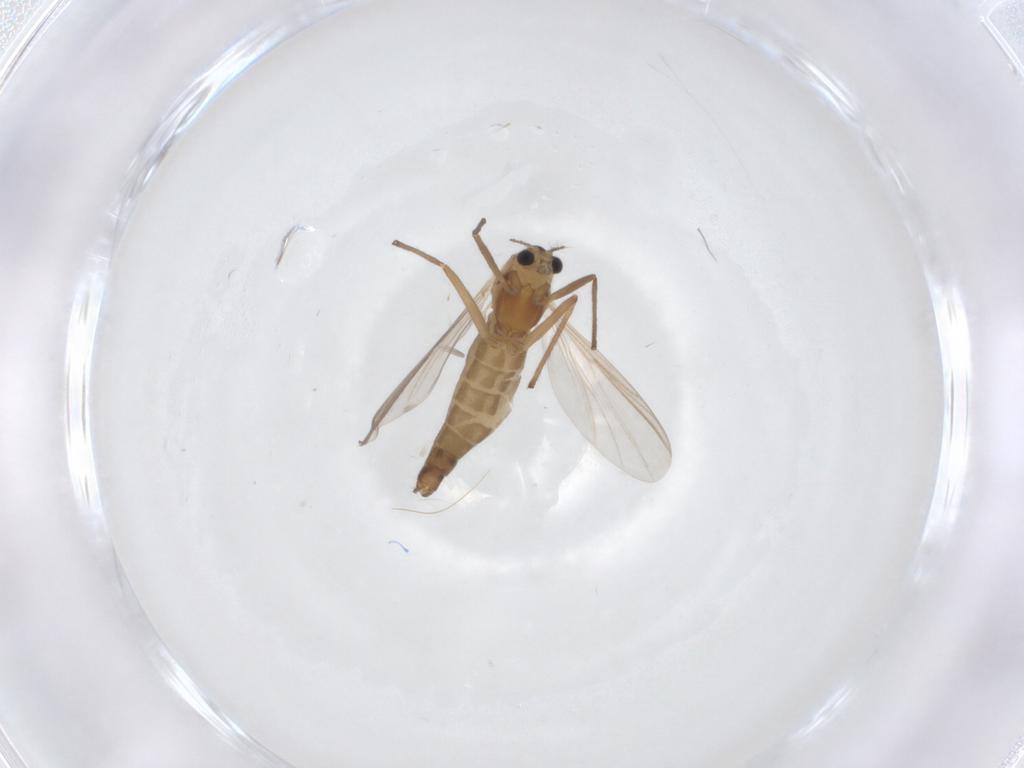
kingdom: Animalia
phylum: Arthropoda
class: Insecta
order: Diptera
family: Chironomidae
